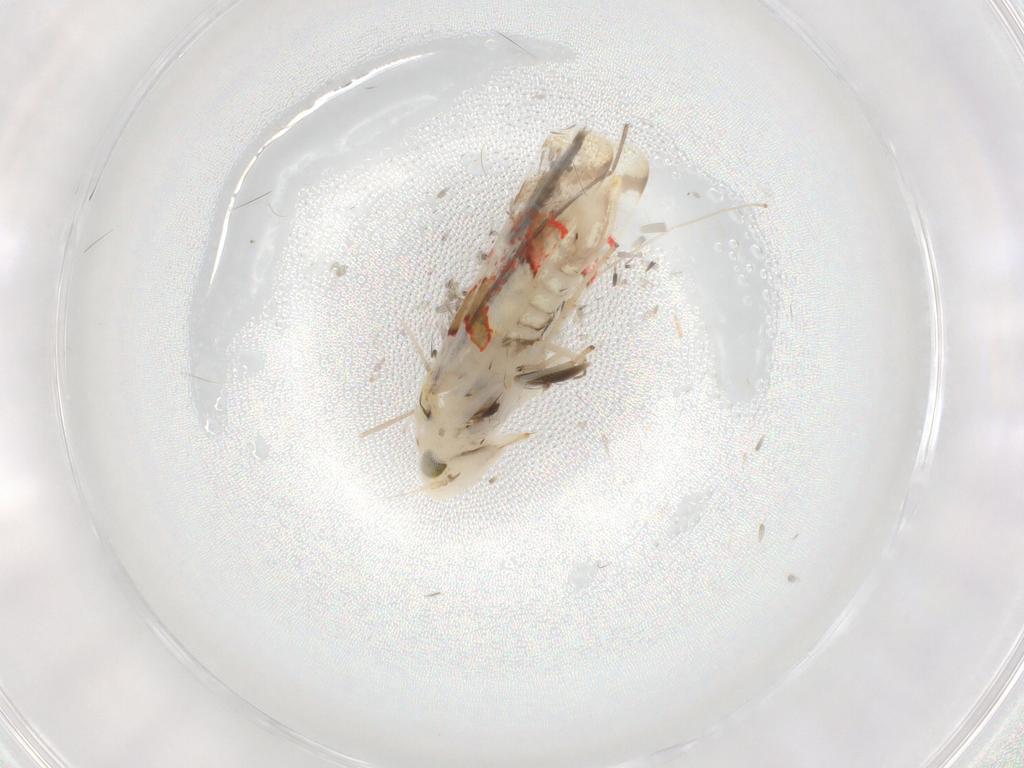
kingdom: Animalia
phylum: Arthropoda
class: Insecta
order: Hemiptera
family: Cicadellidae
